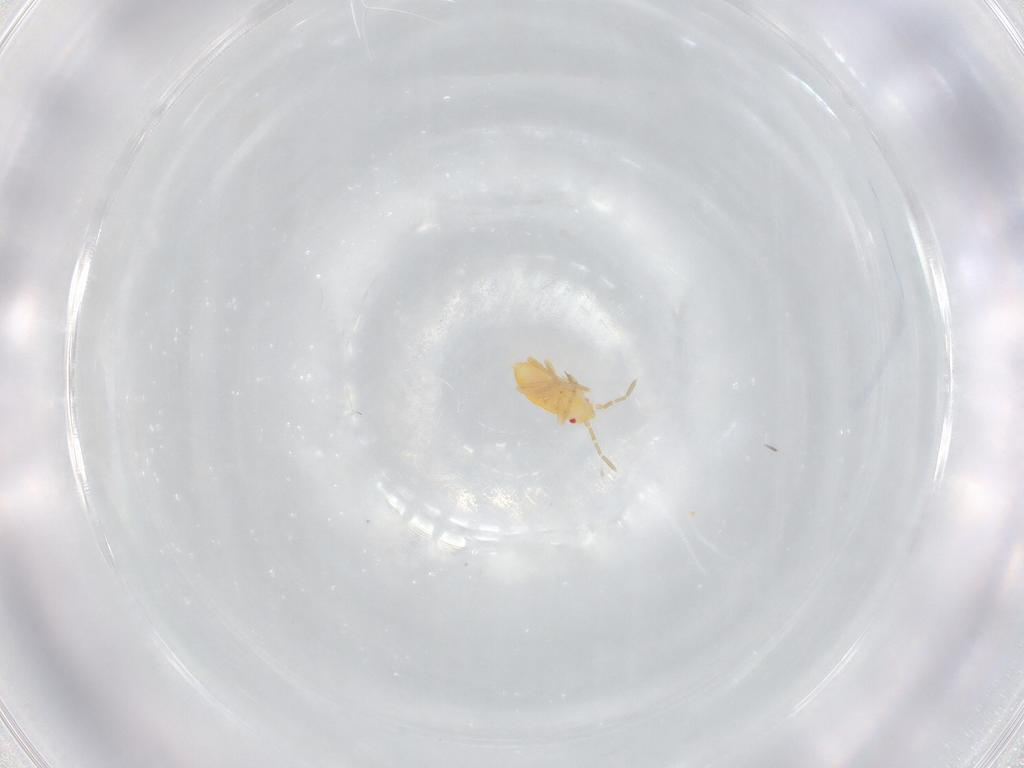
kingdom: Animalia
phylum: Arthropoda
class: Insecta
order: Hemiptera
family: Miridae
